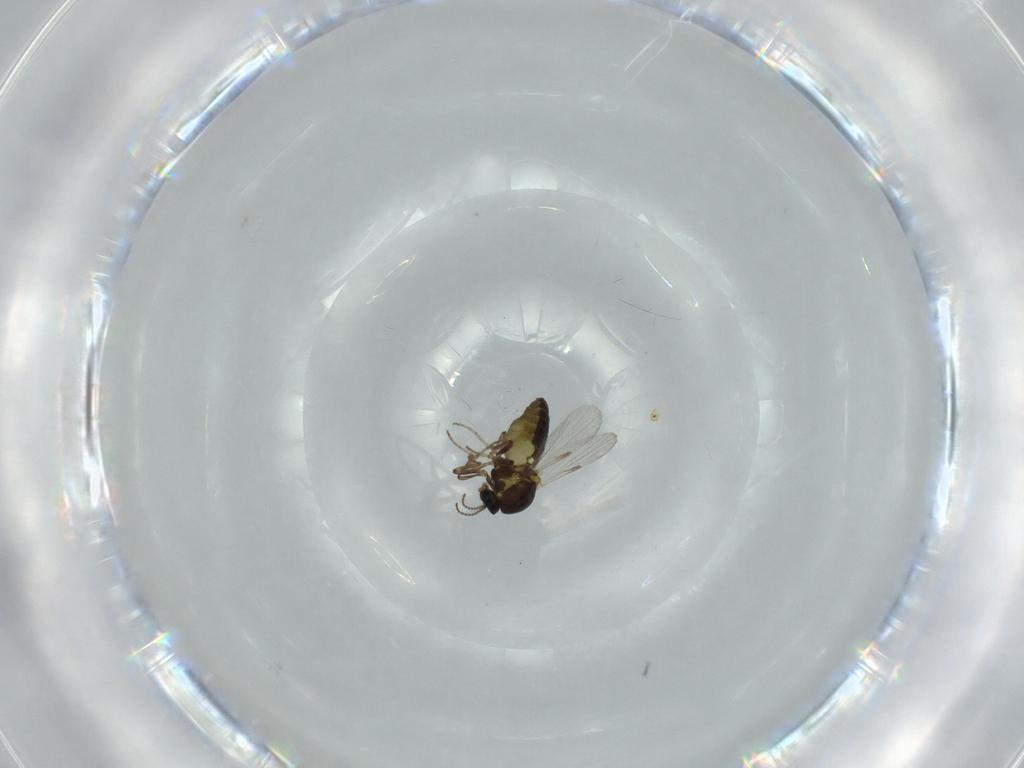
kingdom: Animalia
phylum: Arthropoda
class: Insecta
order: Diptera
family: Ceratopogonidae
